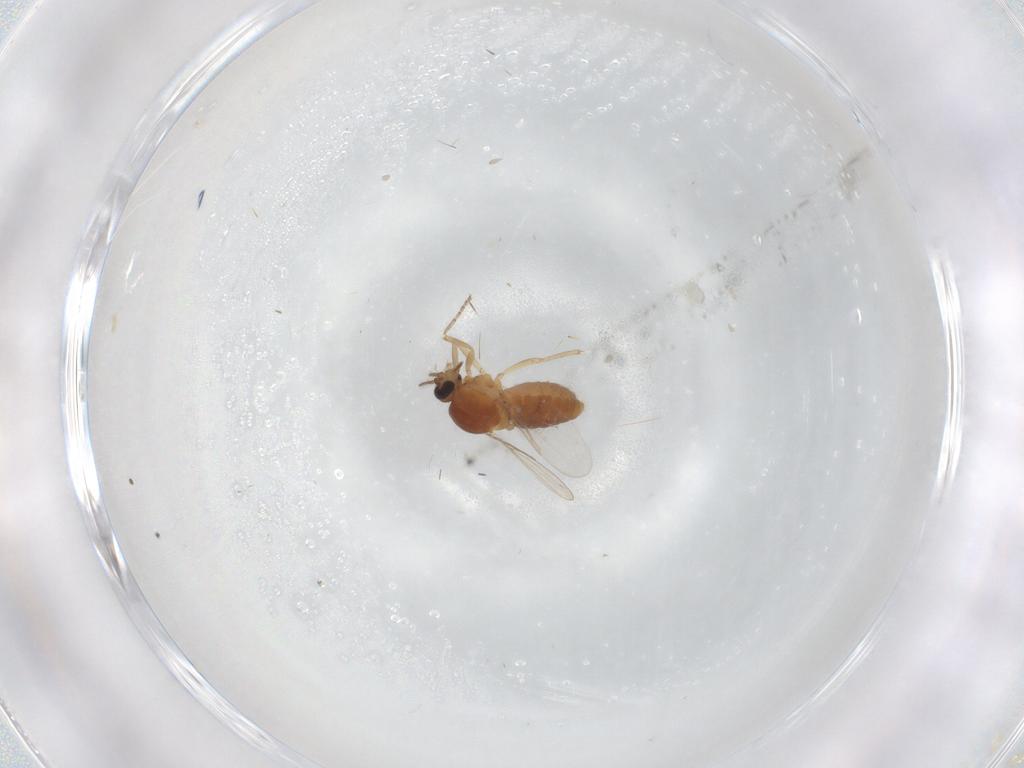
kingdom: Animalia
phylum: Arthropoda
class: Insecta
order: Diptera
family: Ceratopogonidae
